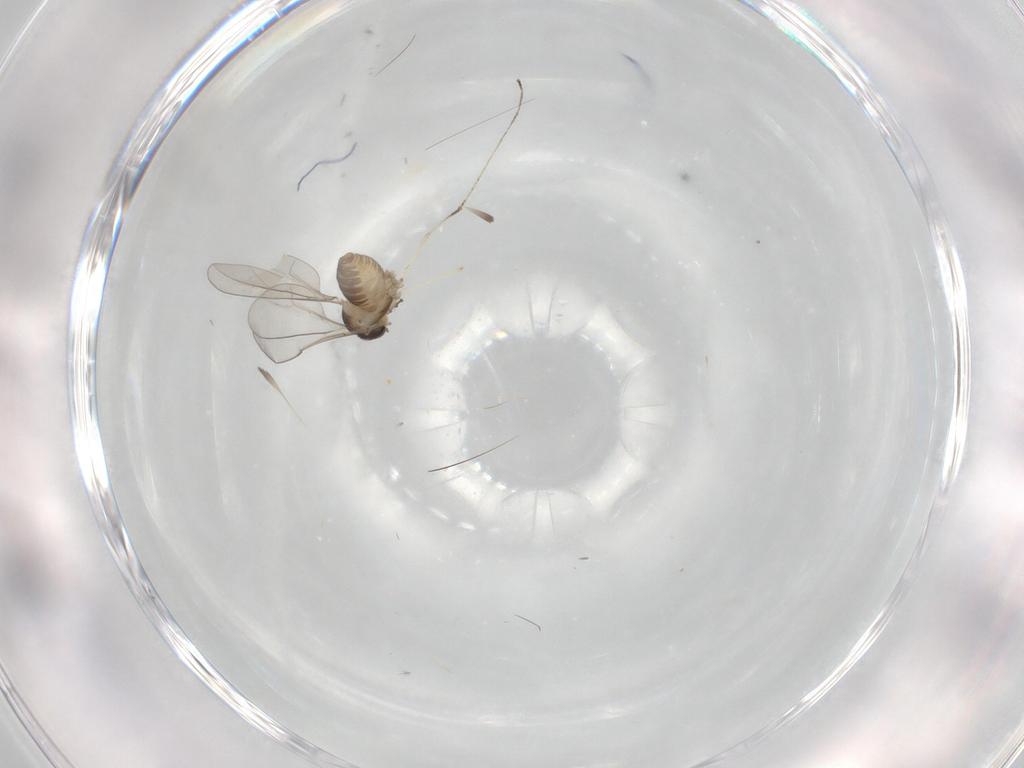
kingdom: Animalia
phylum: Arthropoda
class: Insecta
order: Diptera
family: Cecidomyiidae
